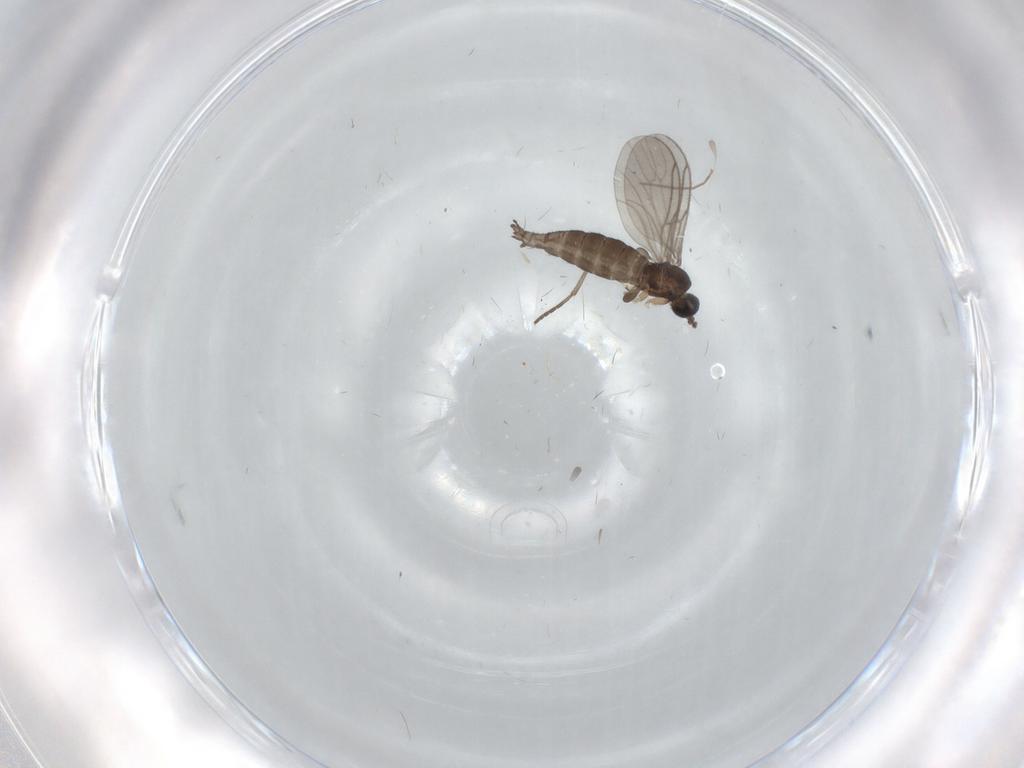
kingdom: Animalia
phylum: Arthropoda
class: Insecta
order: Diptera
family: Sciaridae
